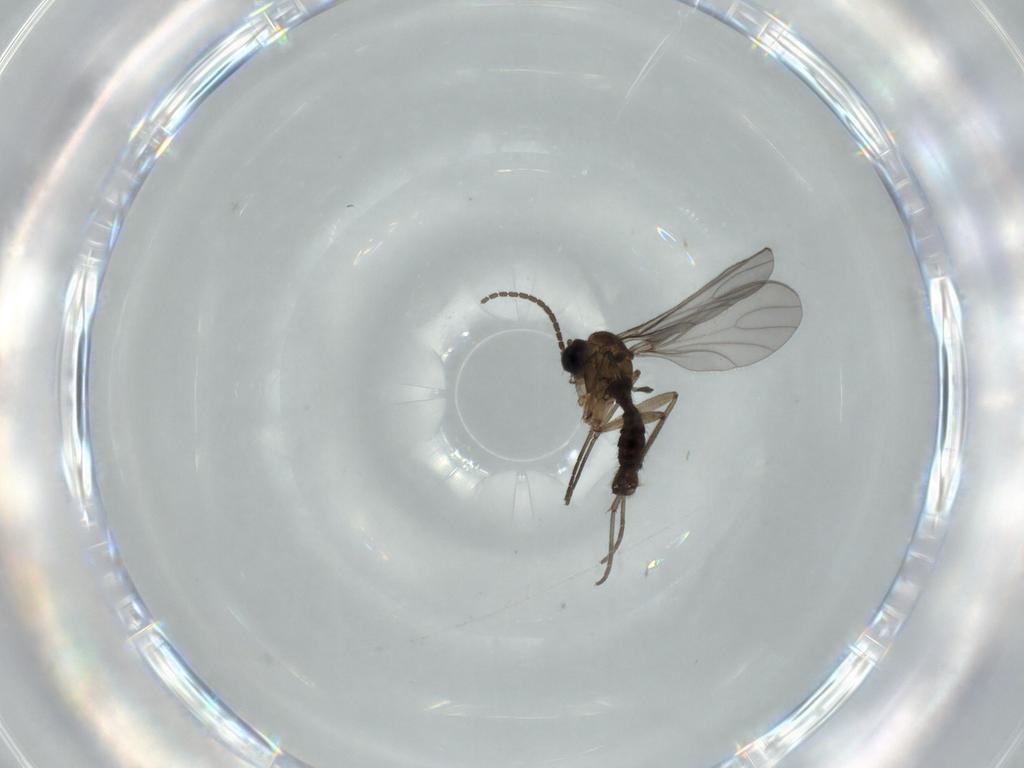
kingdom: Animalia
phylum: Arthropoda
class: Insecta
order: Diptera
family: Sciaridae
